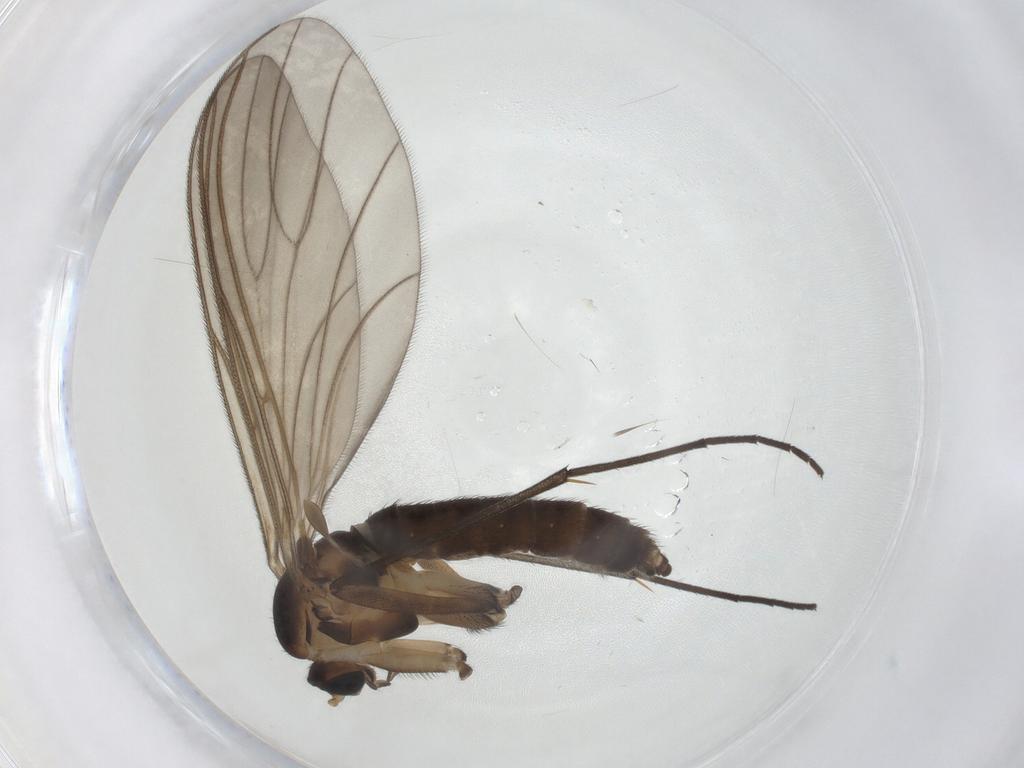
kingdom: Animalia
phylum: Arthropoda
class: Insecta
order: Diptera
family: Sciaridae
